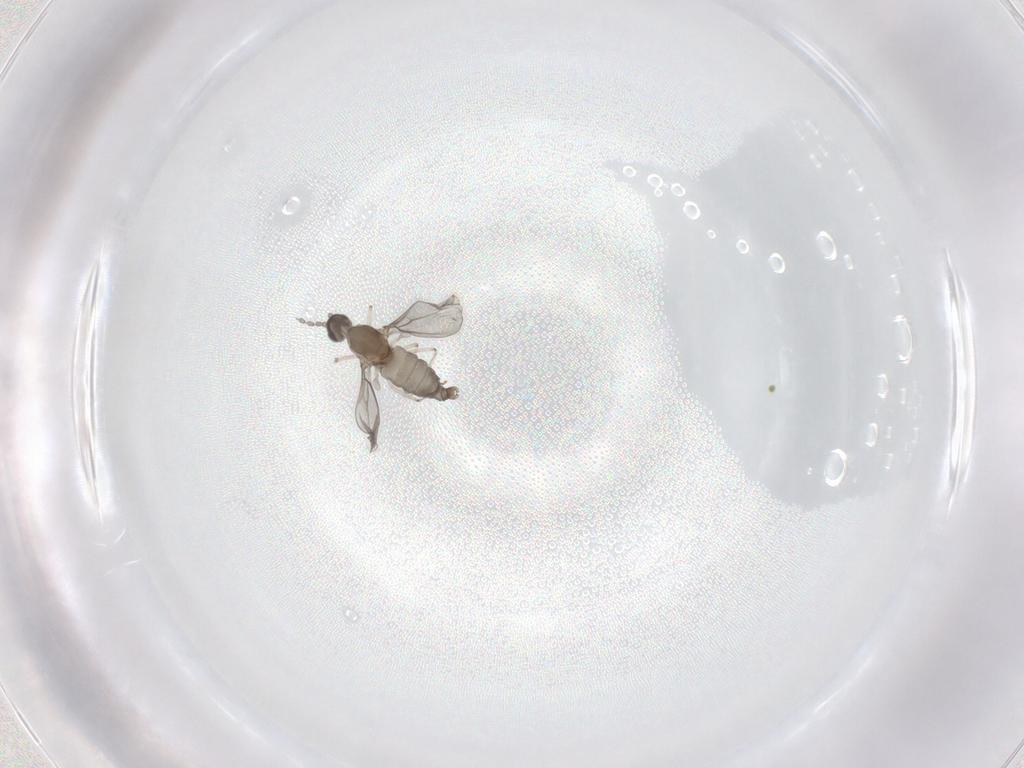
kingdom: Animalia
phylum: Arthropoda
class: Insecta
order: Diptera
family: Cecidomyiidae
